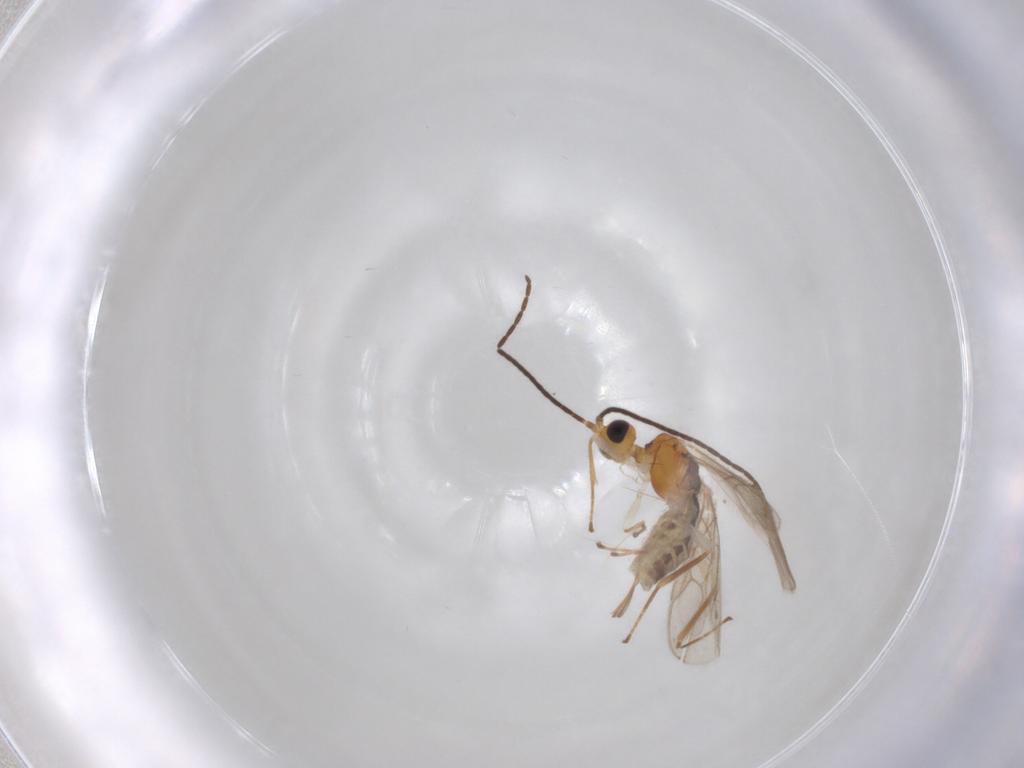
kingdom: Animalia
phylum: Arthropoda
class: Insecta
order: Hymenoptera
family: Braconidae
